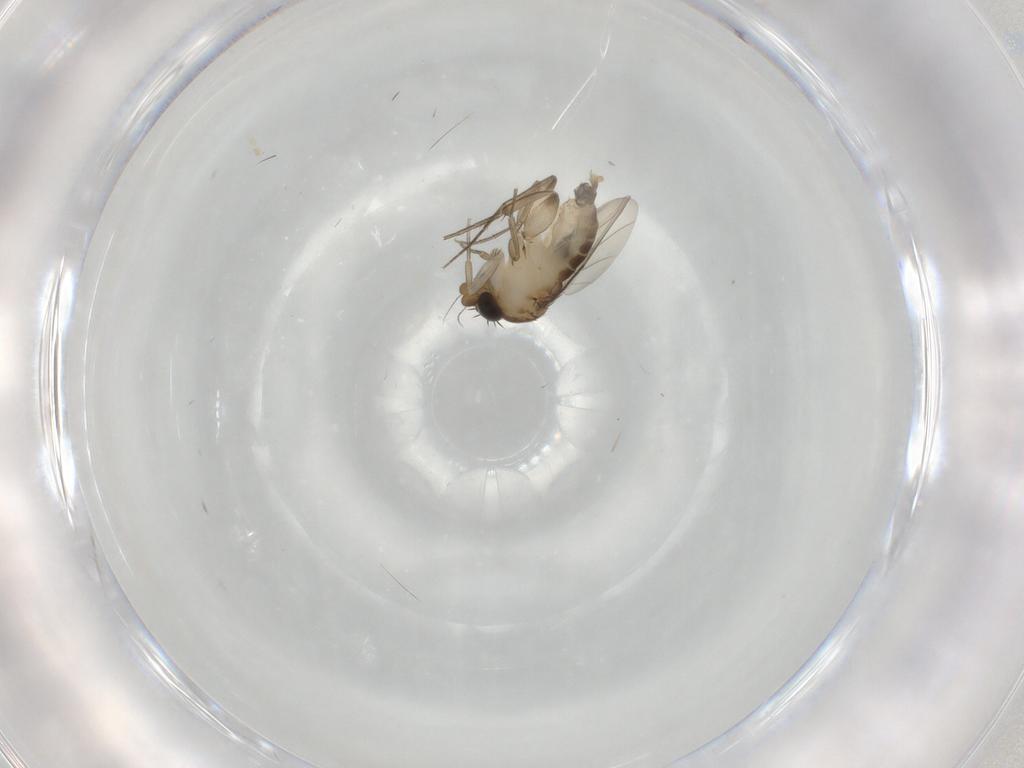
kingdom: Animalia
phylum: Arthropoda
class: Insecta
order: Diptera
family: Phoridae
